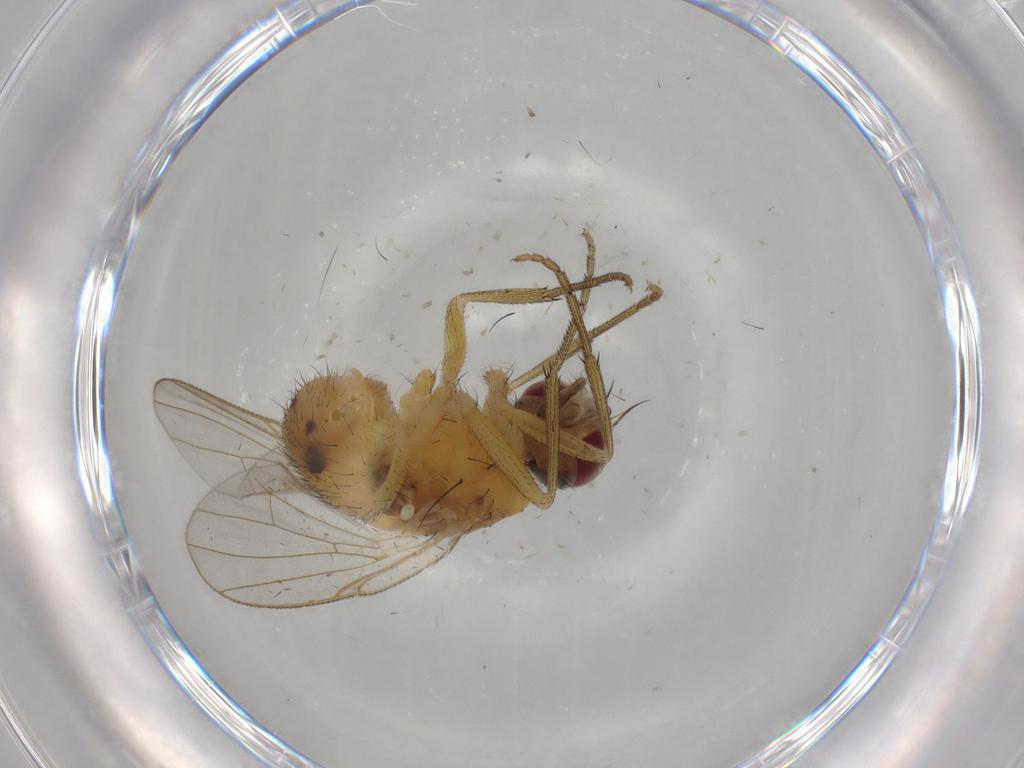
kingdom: Animalia
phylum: Arthropoda
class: Insecta
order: Diptera
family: Muscidae
